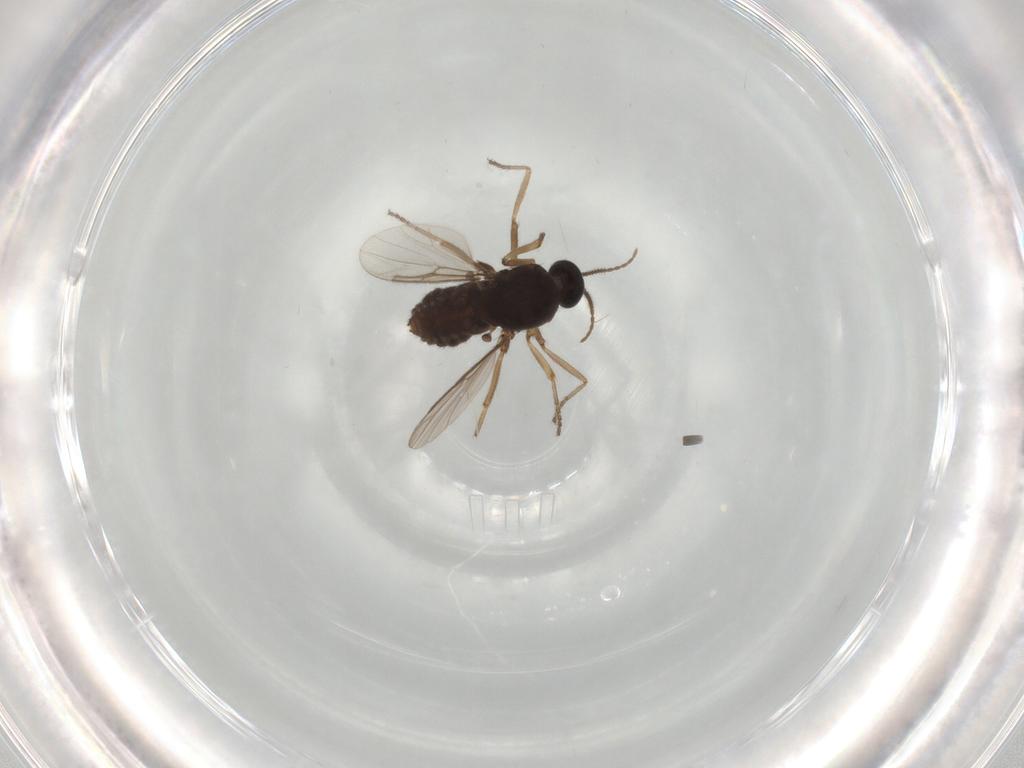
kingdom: Animalia
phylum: Arthropoda
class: Insecta
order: Diptera
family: Ceratopogonidae
